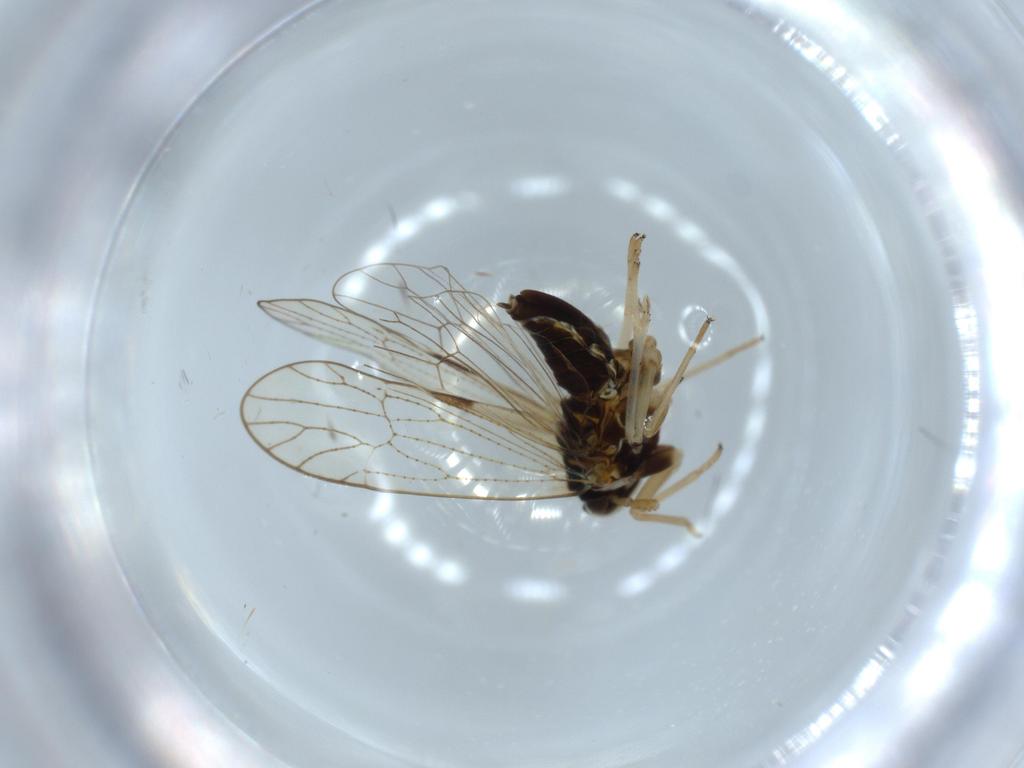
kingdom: Animalia
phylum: Arthropoda
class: Insecta
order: Hemiptera
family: Pyrrhocoridae
